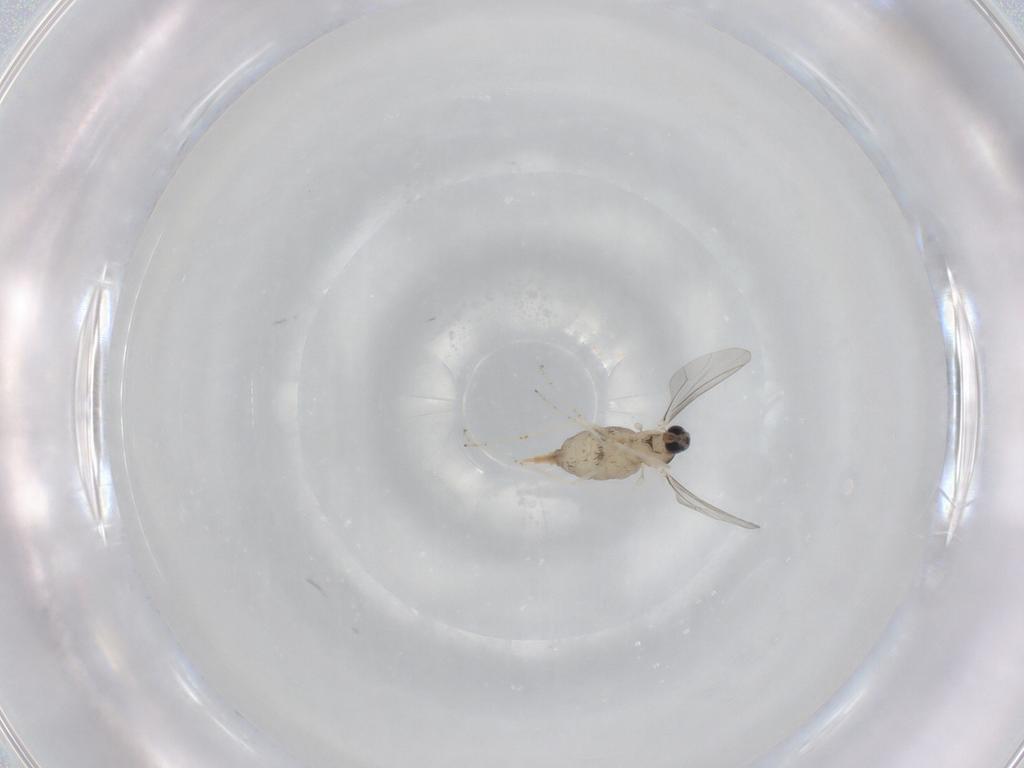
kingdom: Animalia
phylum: Arthropoda
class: Insecta
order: Diptera
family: Cecidomyiidae
